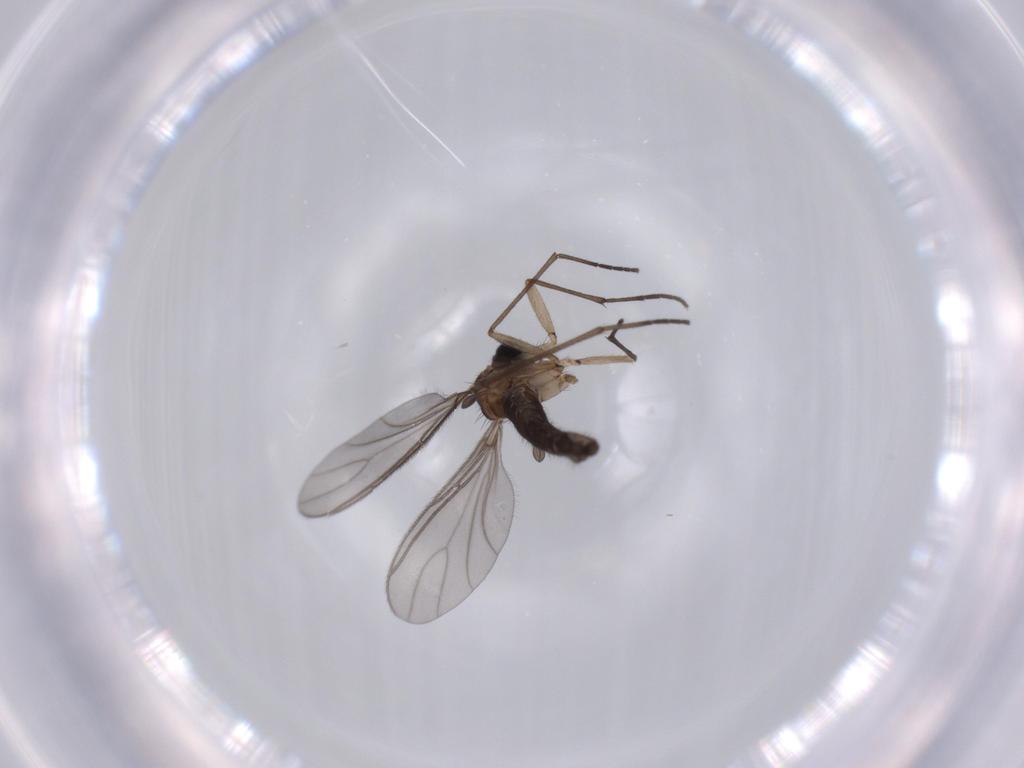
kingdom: Animalia
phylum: Arthropoda
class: Insecta
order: Diptera
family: Sciaridae
